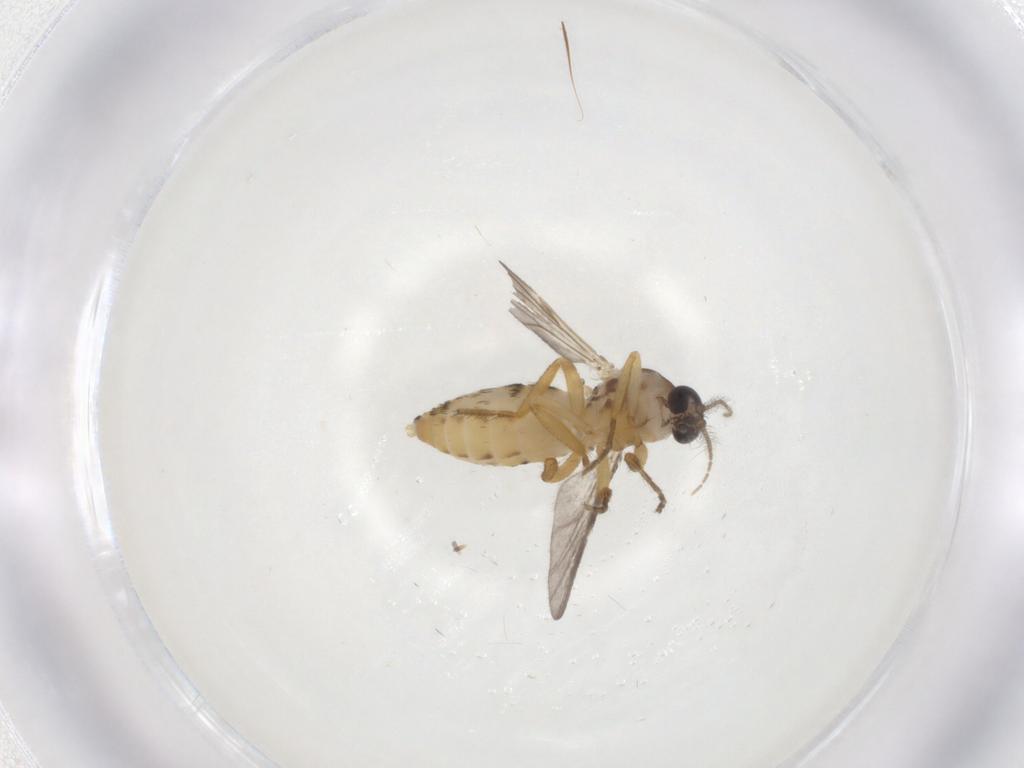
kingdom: Animalia
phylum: Arthropoda
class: Insecta
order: Diptera
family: Ceratopogonidae
